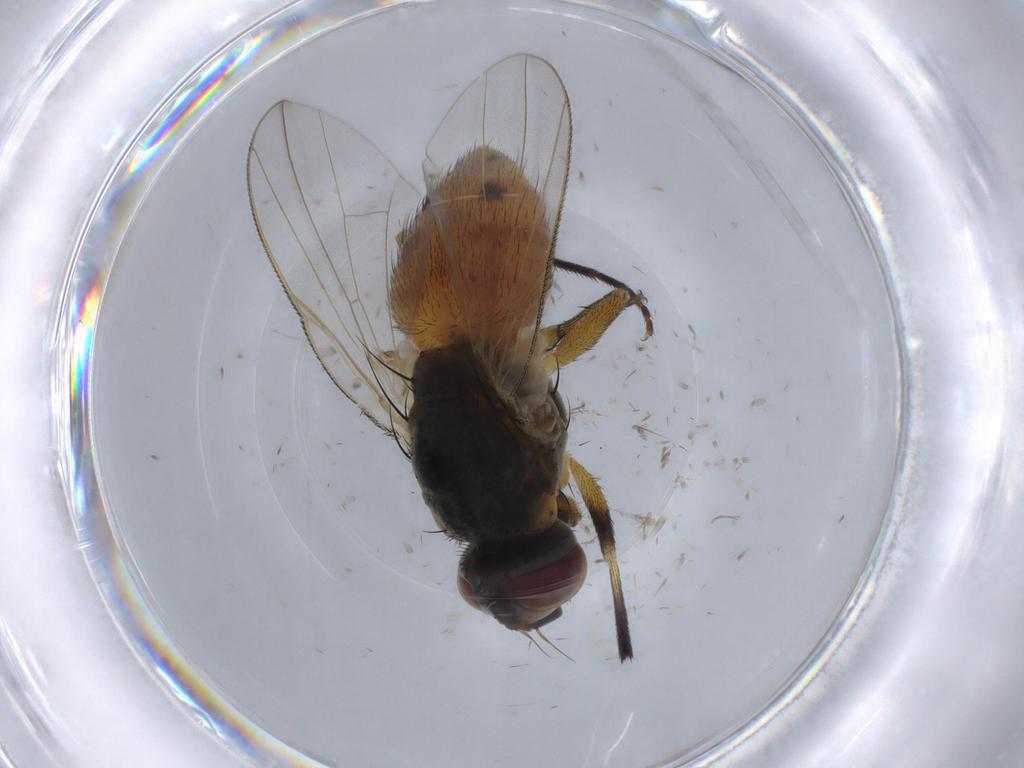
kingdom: Animalia
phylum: Arthropoda
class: Insecta
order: Diptera
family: Muscidae
